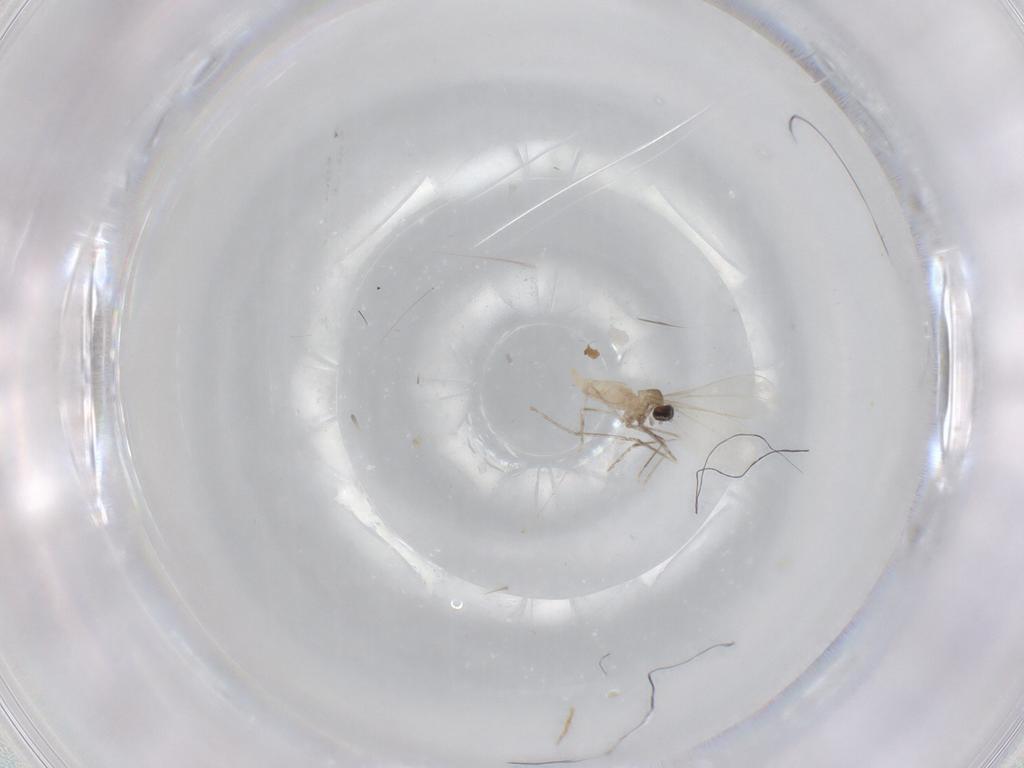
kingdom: Animalia
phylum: Arthropoda
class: Insecta
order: Diptera
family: Cecidomyiidae
